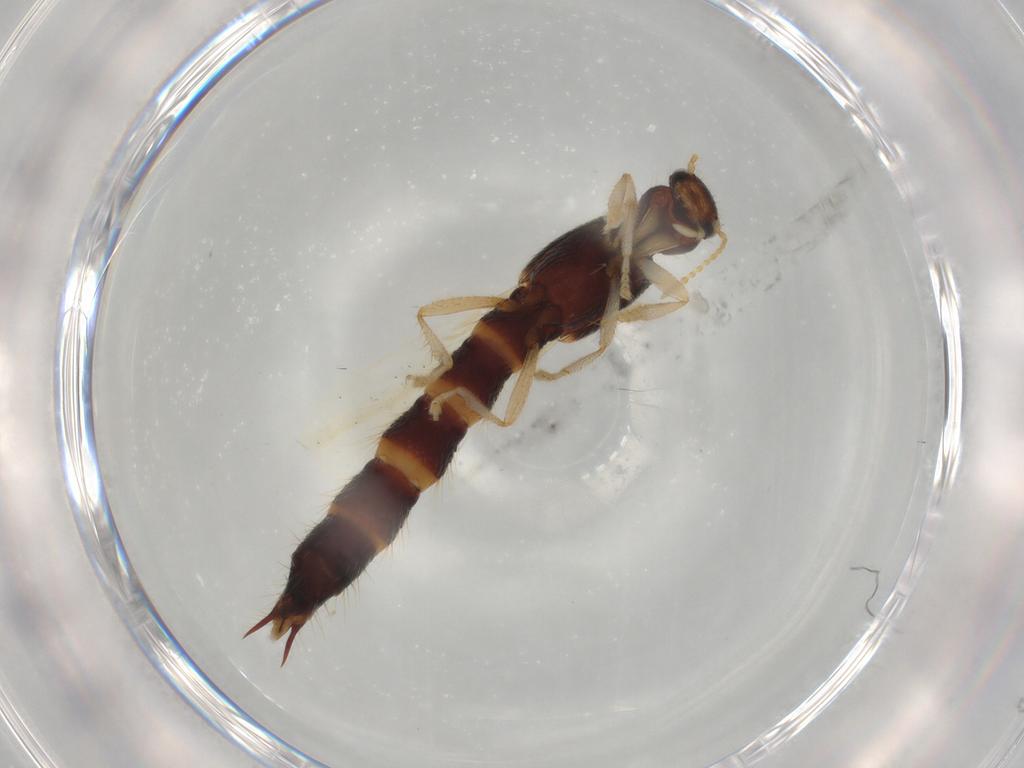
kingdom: Animalia
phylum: Arthropoda
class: Insecta
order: Coleoptera
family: Staphylinidae
